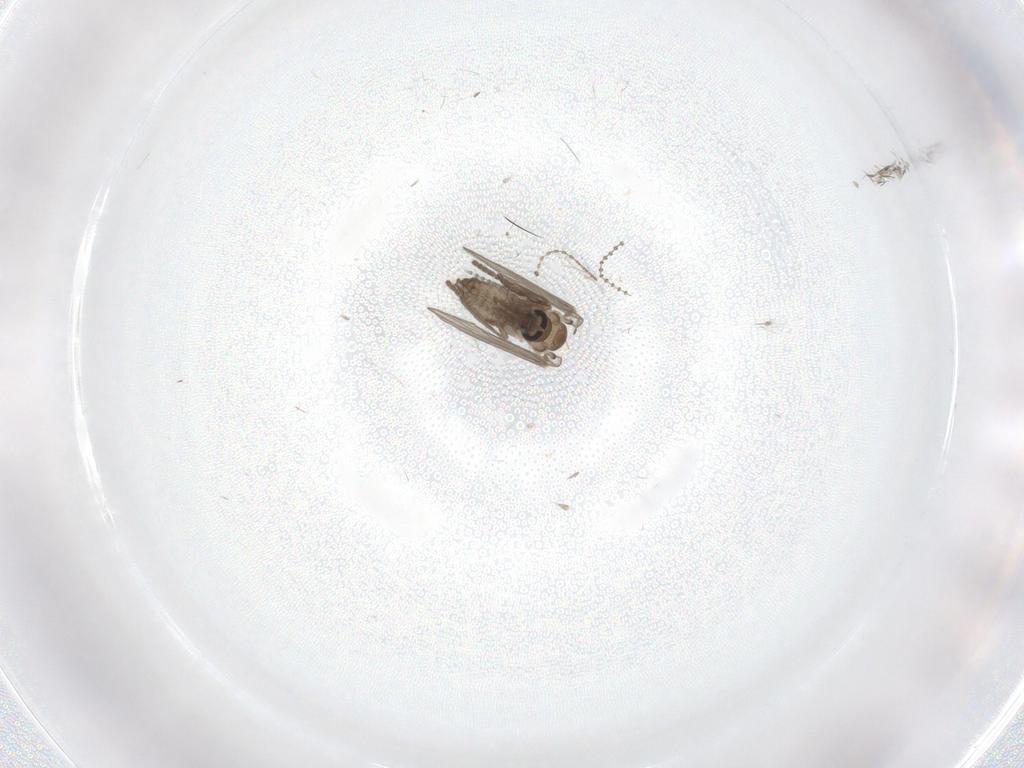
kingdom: Animalia
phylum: Arthropoda
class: Insecta
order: Diptera
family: Psychodidae
